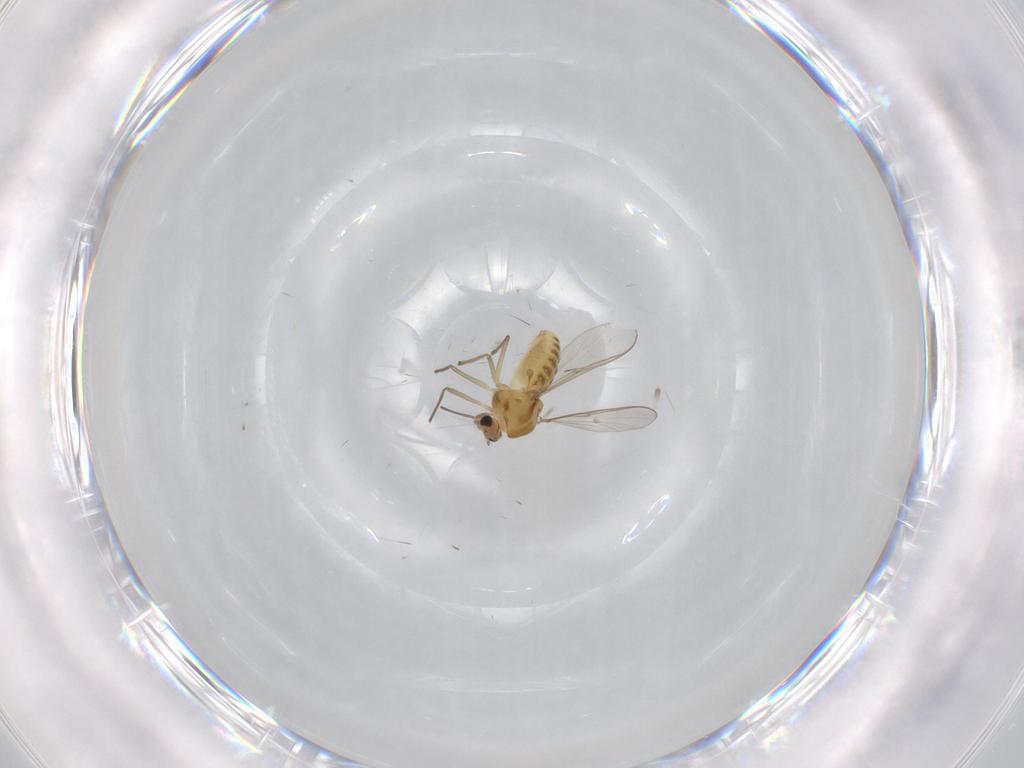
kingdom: Animalia
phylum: Arthropoda
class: Insecta
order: Diptera
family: Chironomidae
